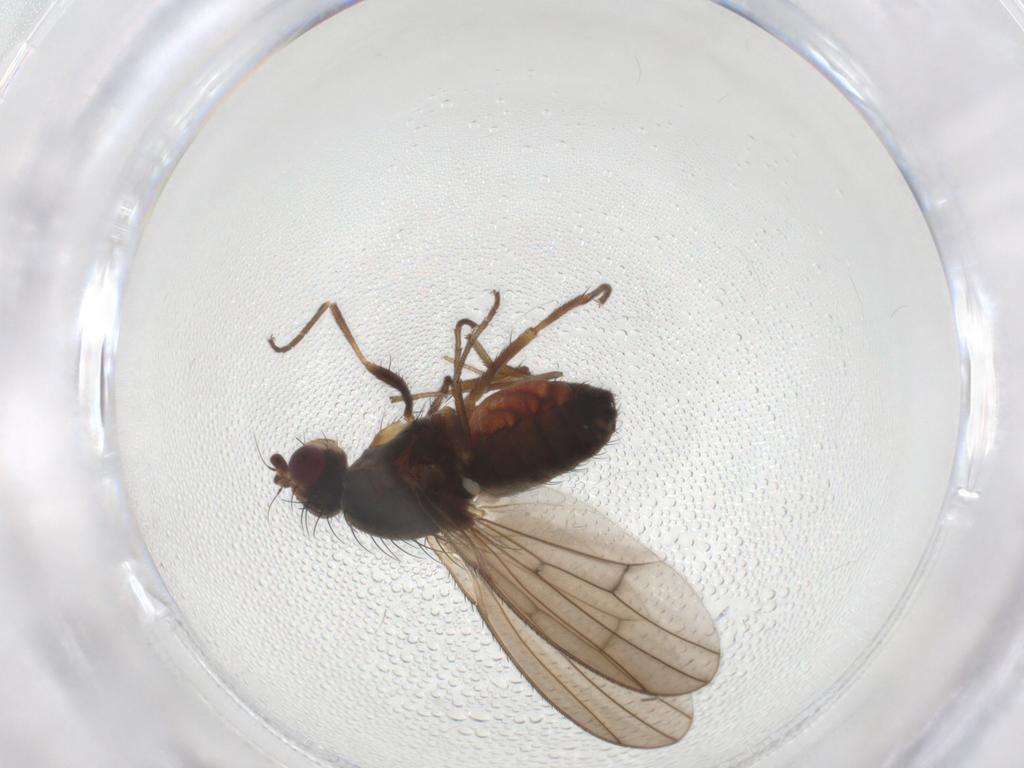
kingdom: Animalia
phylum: Arthropoda
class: Insecta
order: Diptera
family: Heleomyzidae
